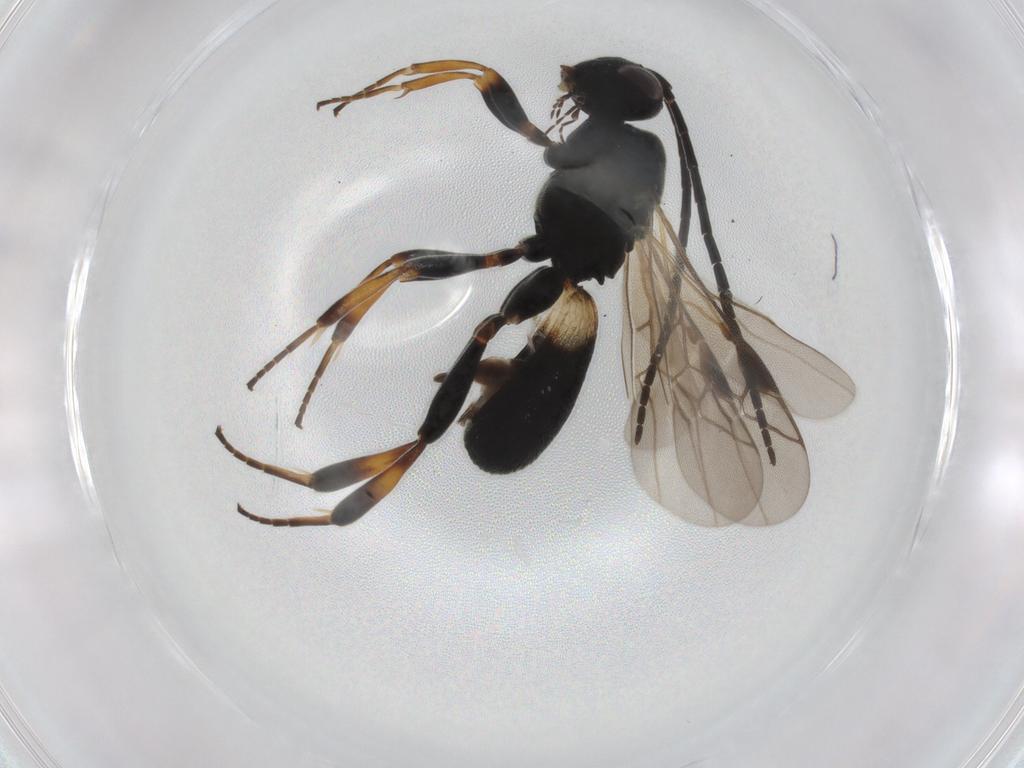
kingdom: Animalia
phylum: Arthropoda
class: Insecta
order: Hymenoptera
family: Braconidae
